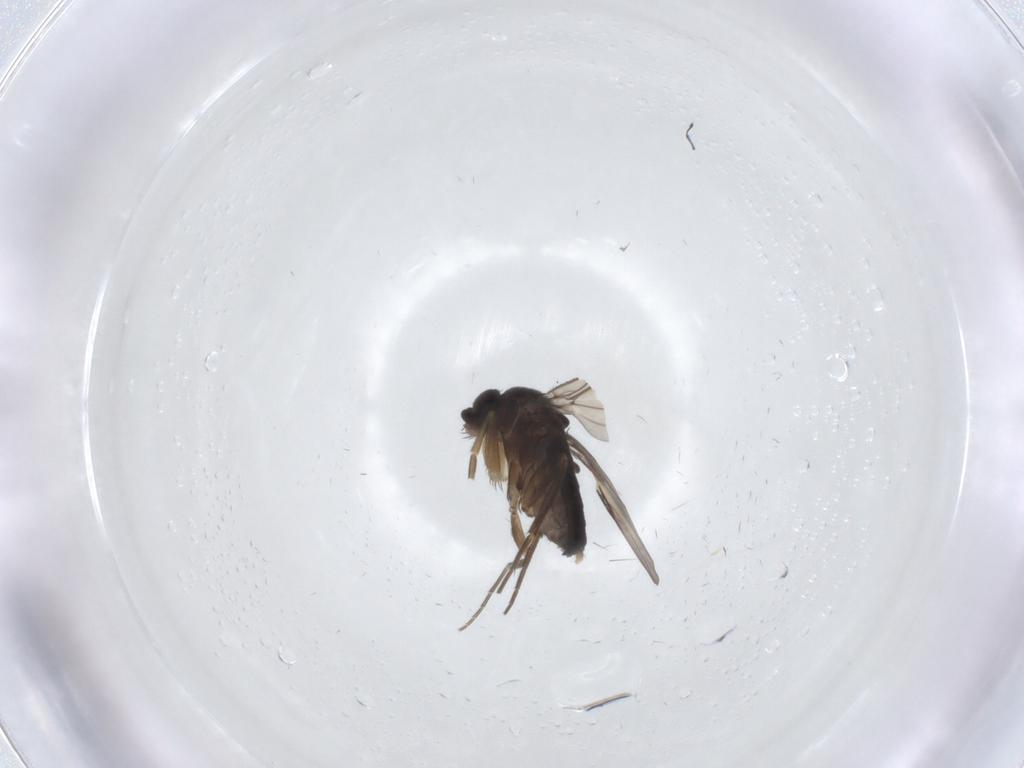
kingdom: Animalia
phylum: Arthropoda
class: Insecta
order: Diptera
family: Phoridae
